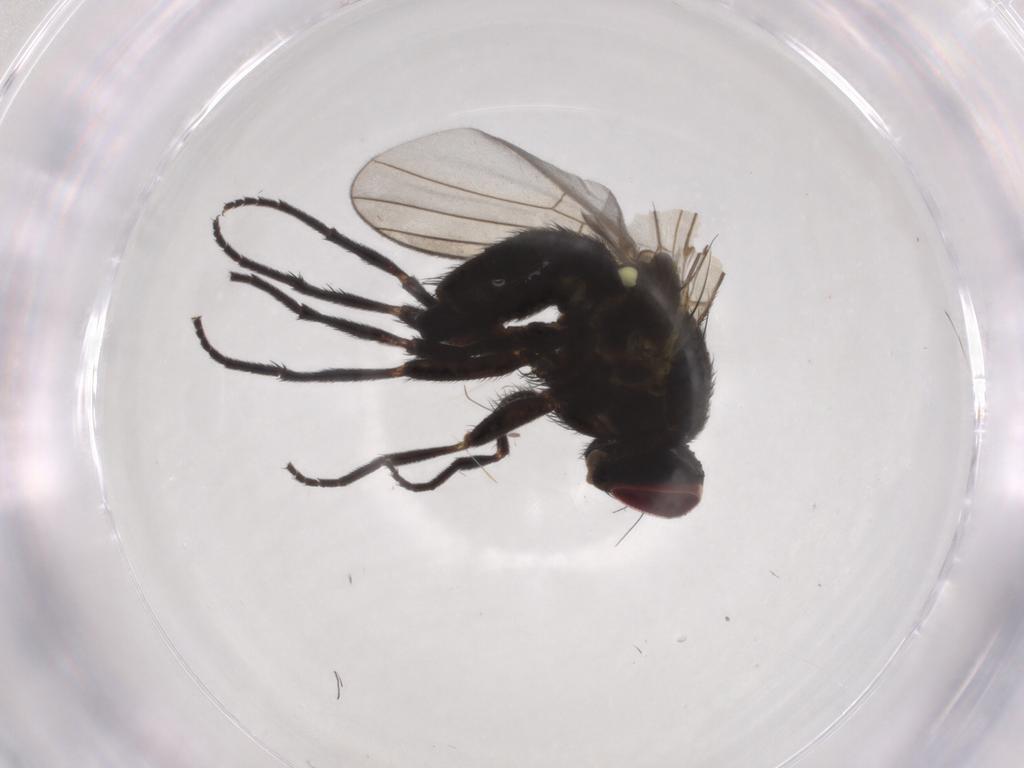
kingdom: Animalia
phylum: Arthropoda
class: Insecta
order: Diptera
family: Agromyzidae
